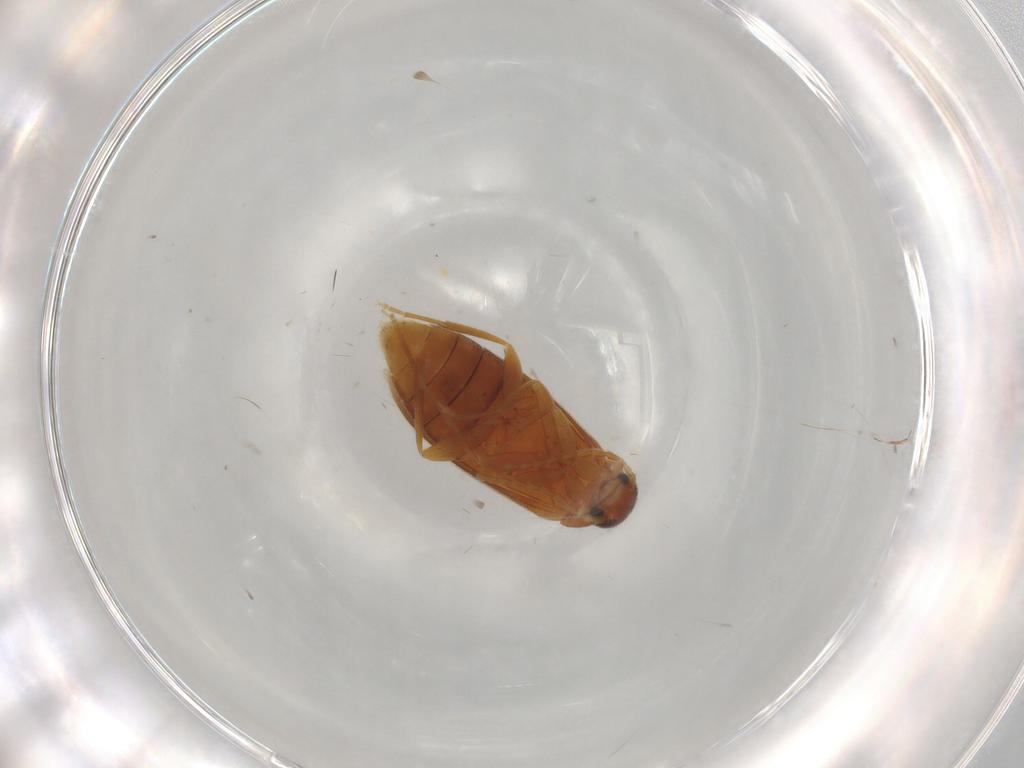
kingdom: Animalia
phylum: Arthropoda
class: Insecta
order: Coleoptera
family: Scraptiidae
